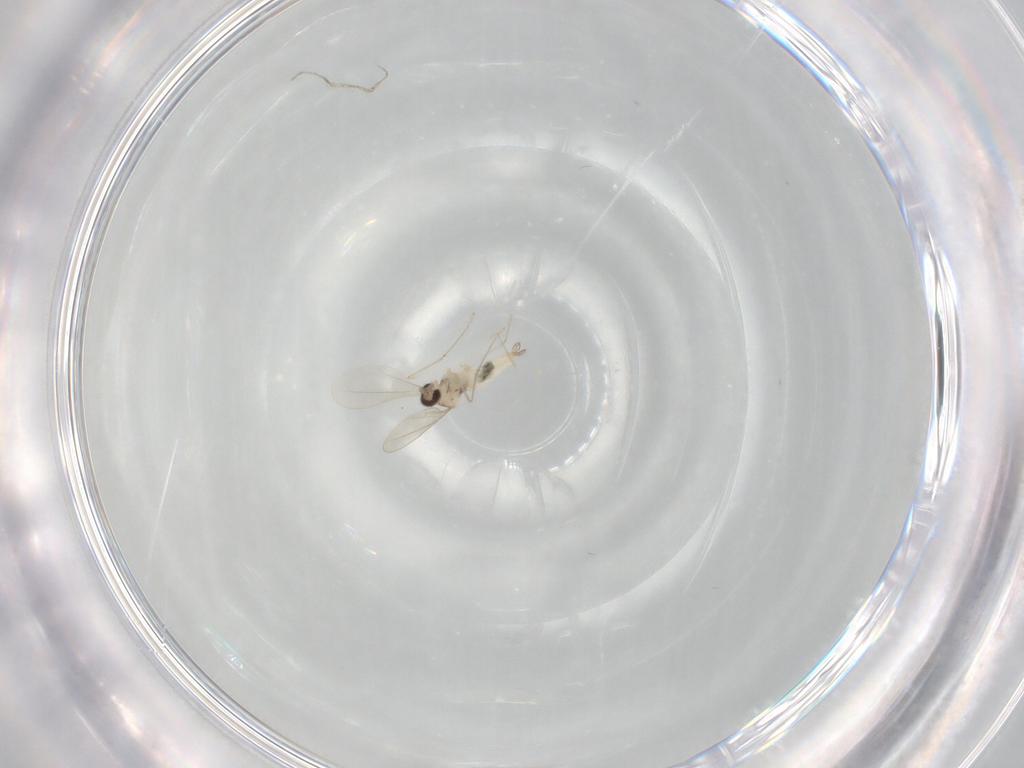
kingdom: Animalia
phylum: Arthropoda
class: Insecta
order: Diptera
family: Cecidomyiidae
